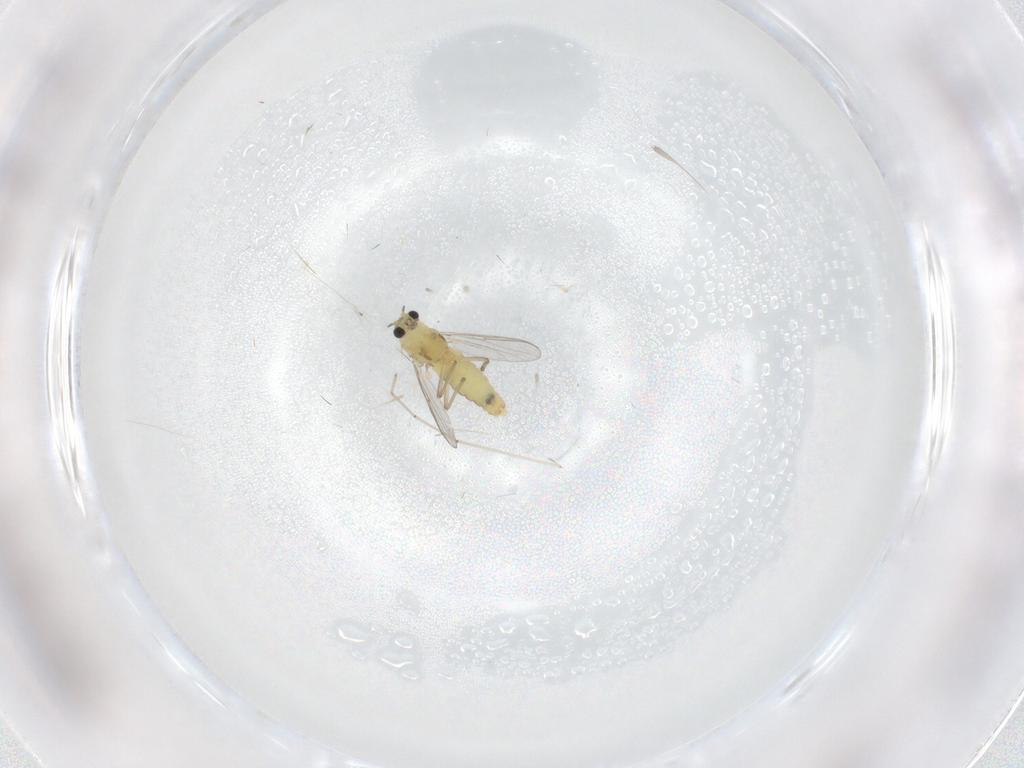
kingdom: Animalia
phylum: Arthropoda
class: Insecta
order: Diptera
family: Cecidomyiidae
